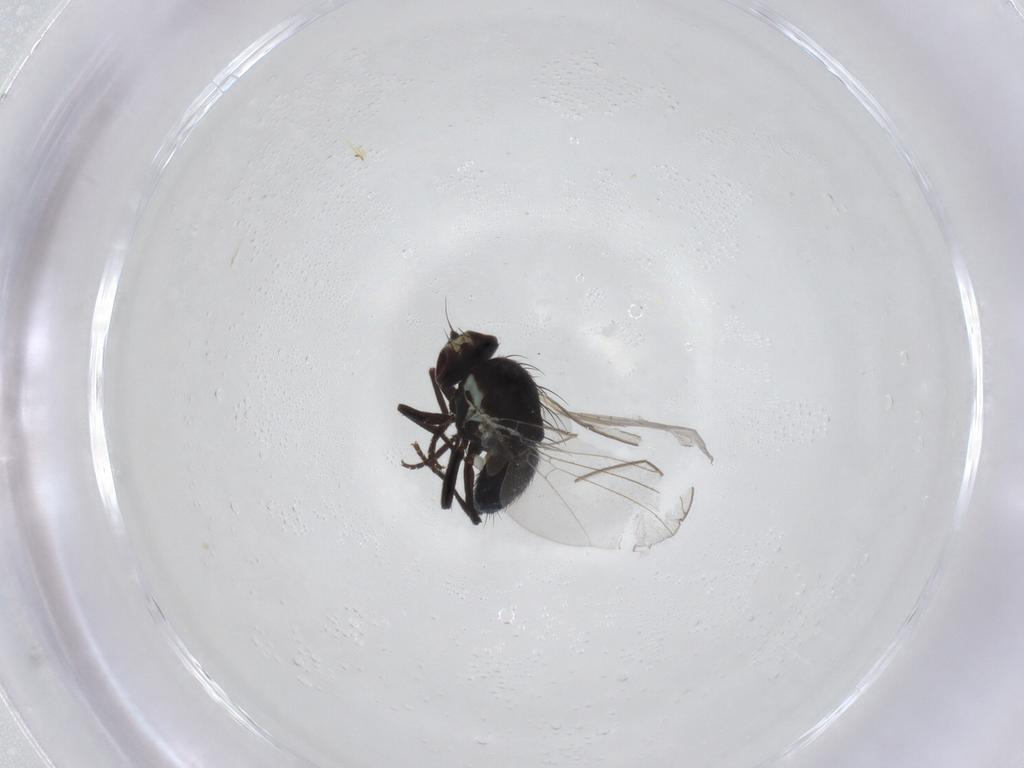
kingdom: Animalia
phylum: Arthropoda
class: Insecta
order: Diptera
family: Agromyzidae
